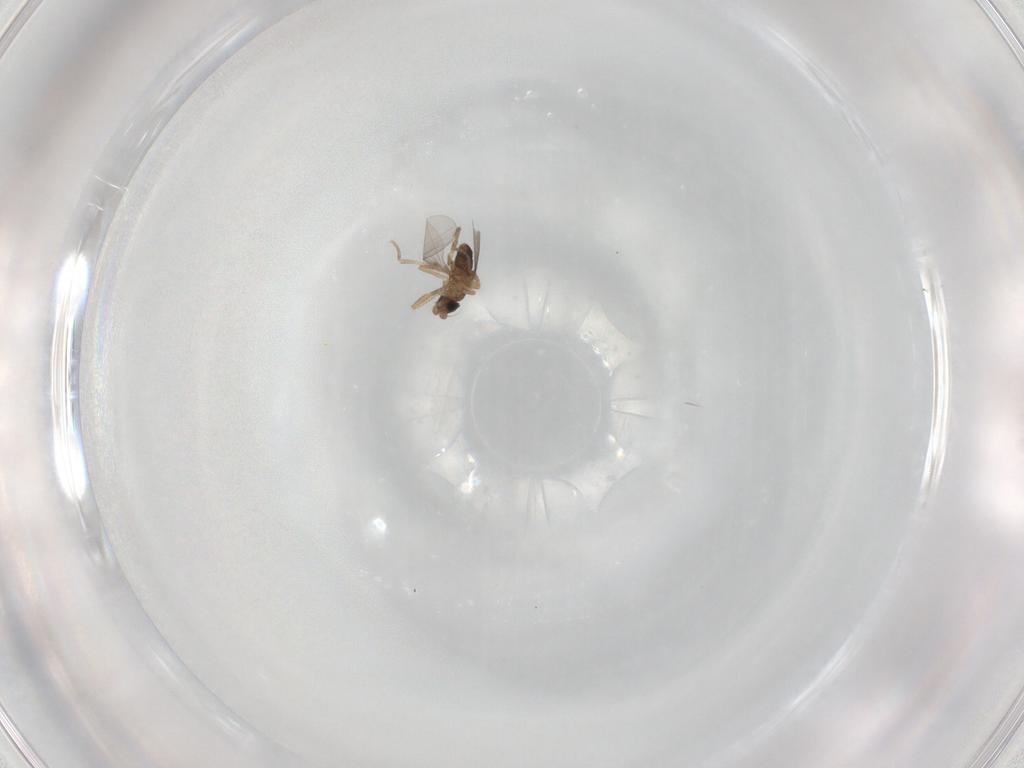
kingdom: Animalia
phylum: Arthropoda
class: Insecta
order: Diptera
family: Phoridae
